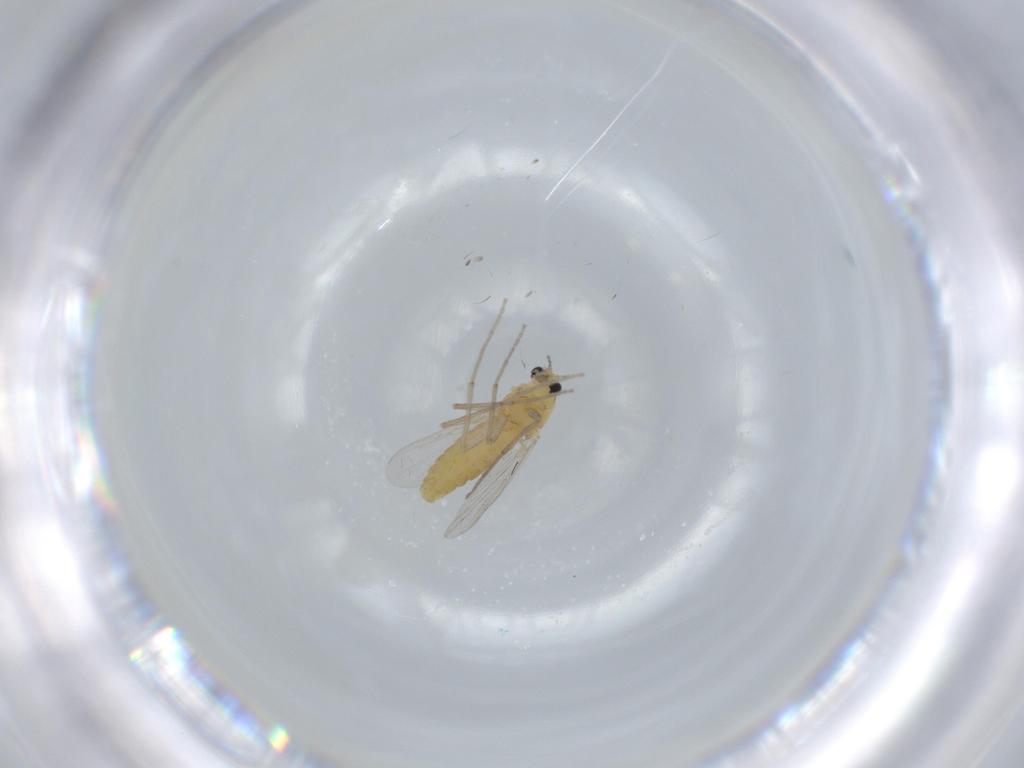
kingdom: Animalia
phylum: Arthropoda
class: Insecta
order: Diptera
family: Chironomidae
